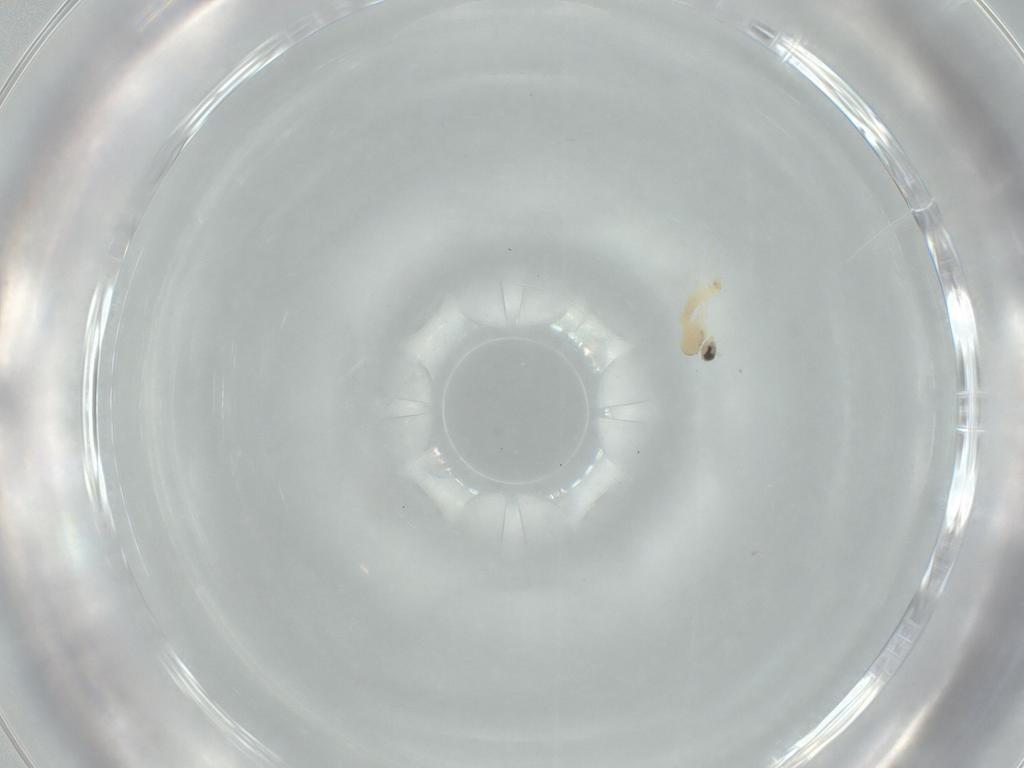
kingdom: Animalia
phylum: Arthropoda
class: Insecta
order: Diptera
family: Cecidomyiidae
